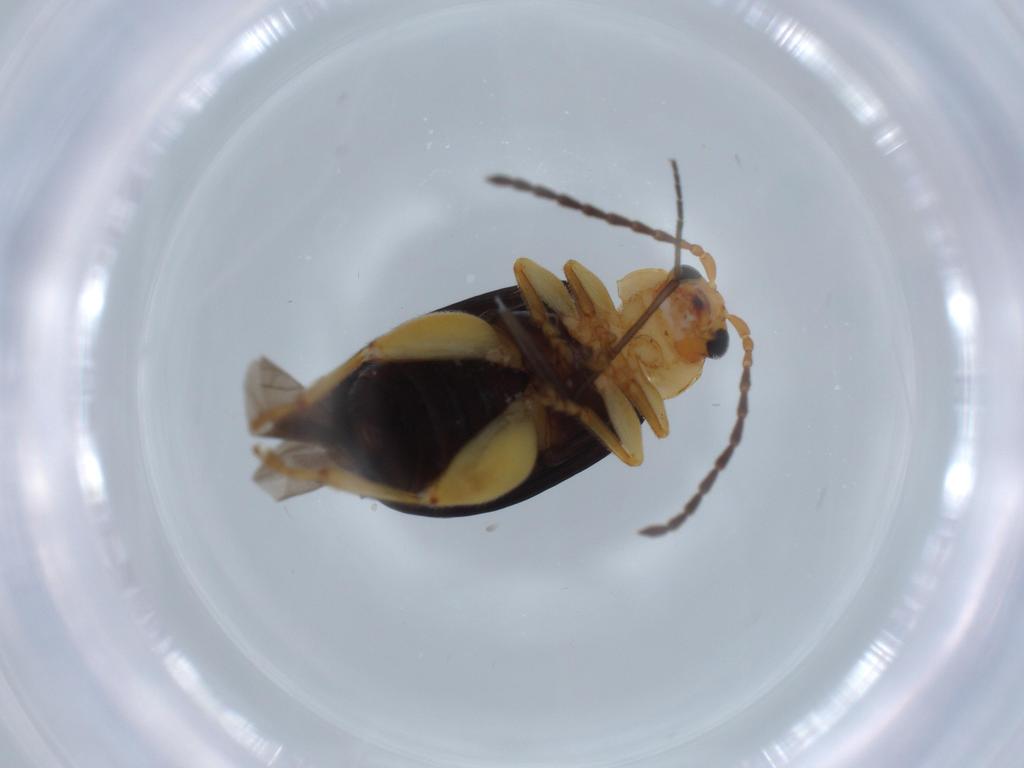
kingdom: Animalia
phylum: Arthropoda
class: Insecta
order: Coleoptera
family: Chrysomelidae
